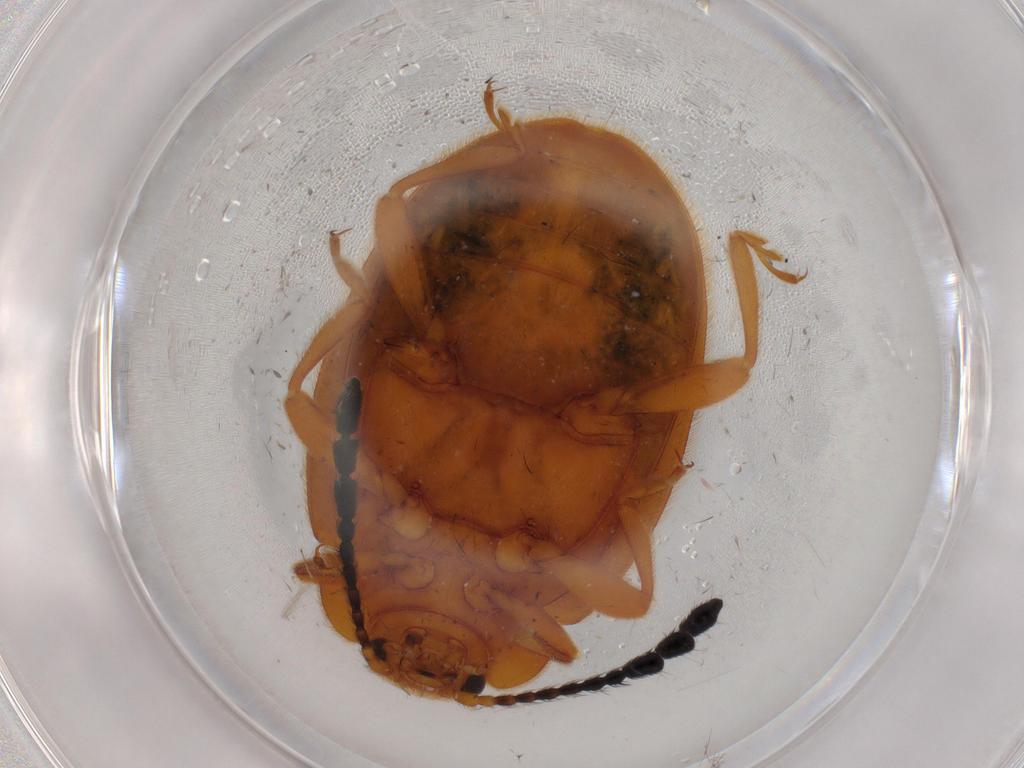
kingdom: Animalia
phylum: Arthropoda
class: Insecta
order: Coleoptera
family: Endomychidae
